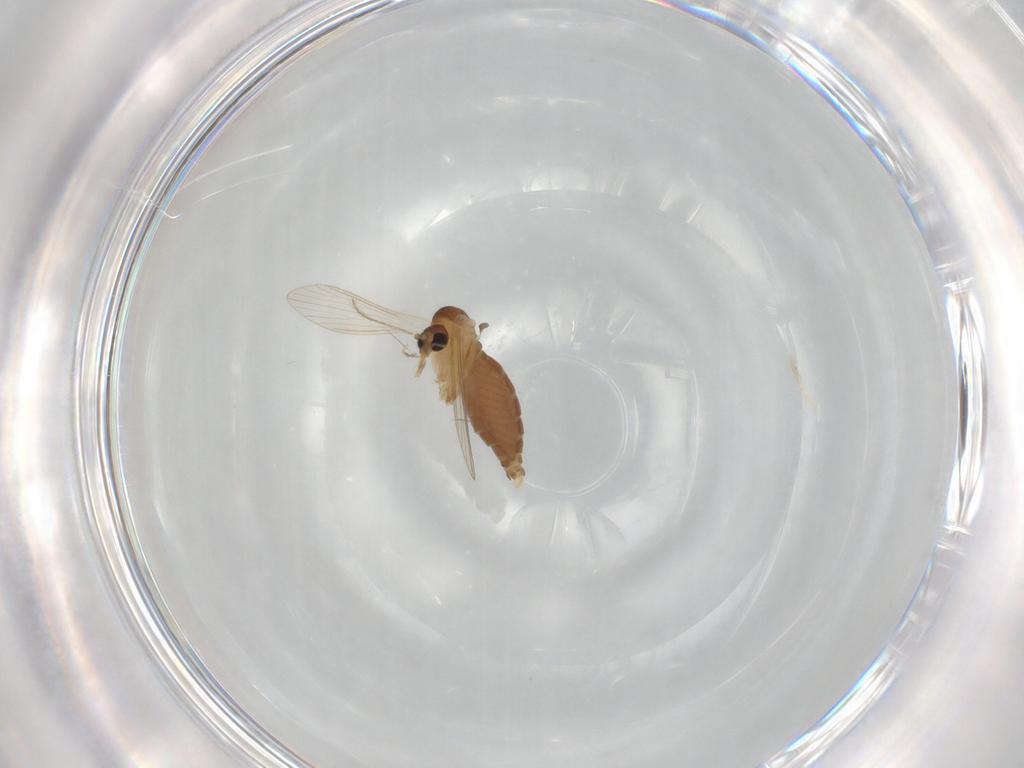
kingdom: Animalia
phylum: Arthropoda
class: Insecta
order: Diptera
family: Psychodidae
